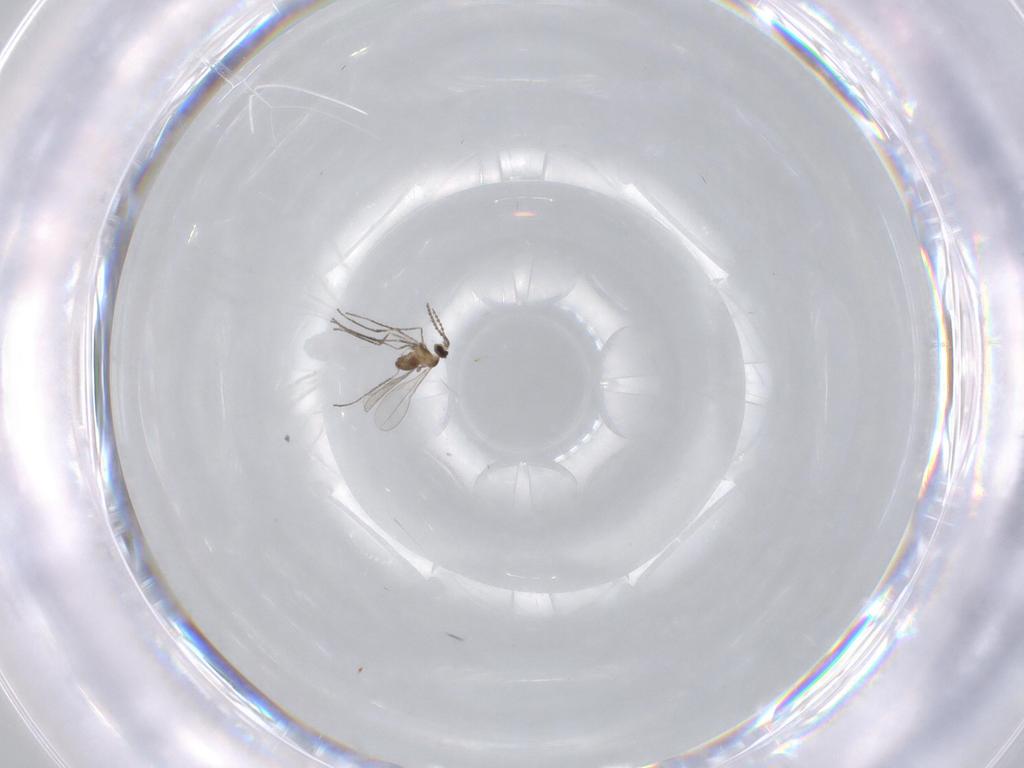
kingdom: Animalia
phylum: Arthropoda
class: Insecta
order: Diptera
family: Cecidomyiidae
